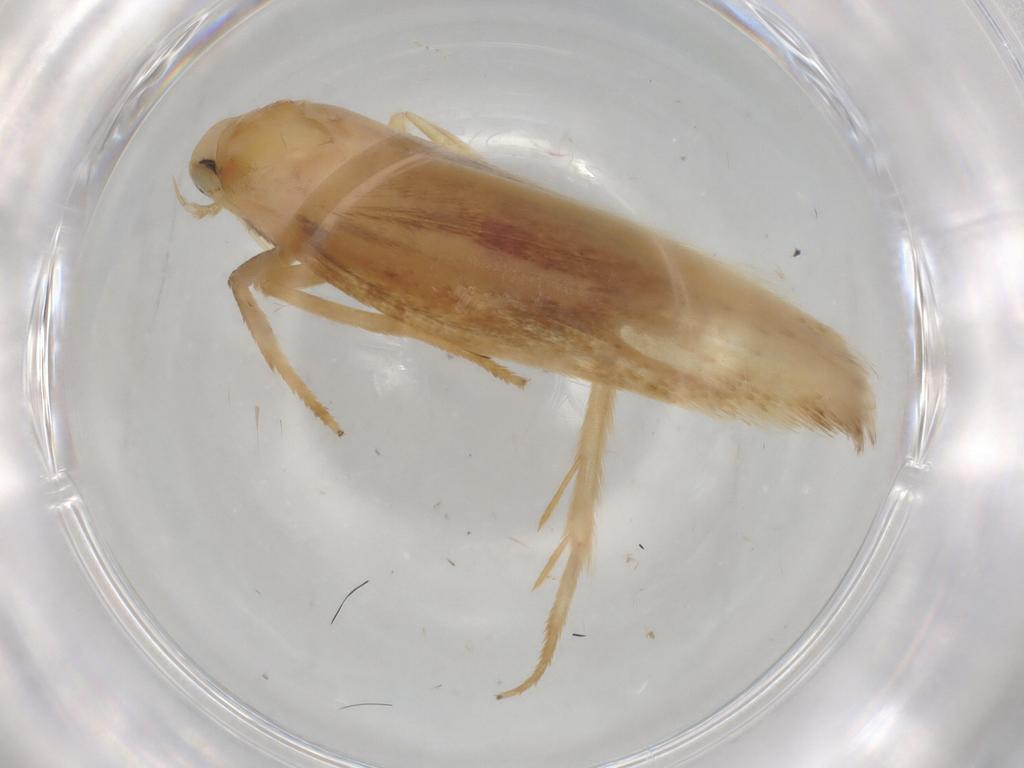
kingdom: Animalia
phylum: Arthropoda
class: Insecta
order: Lepidoptera
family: Geometridae
